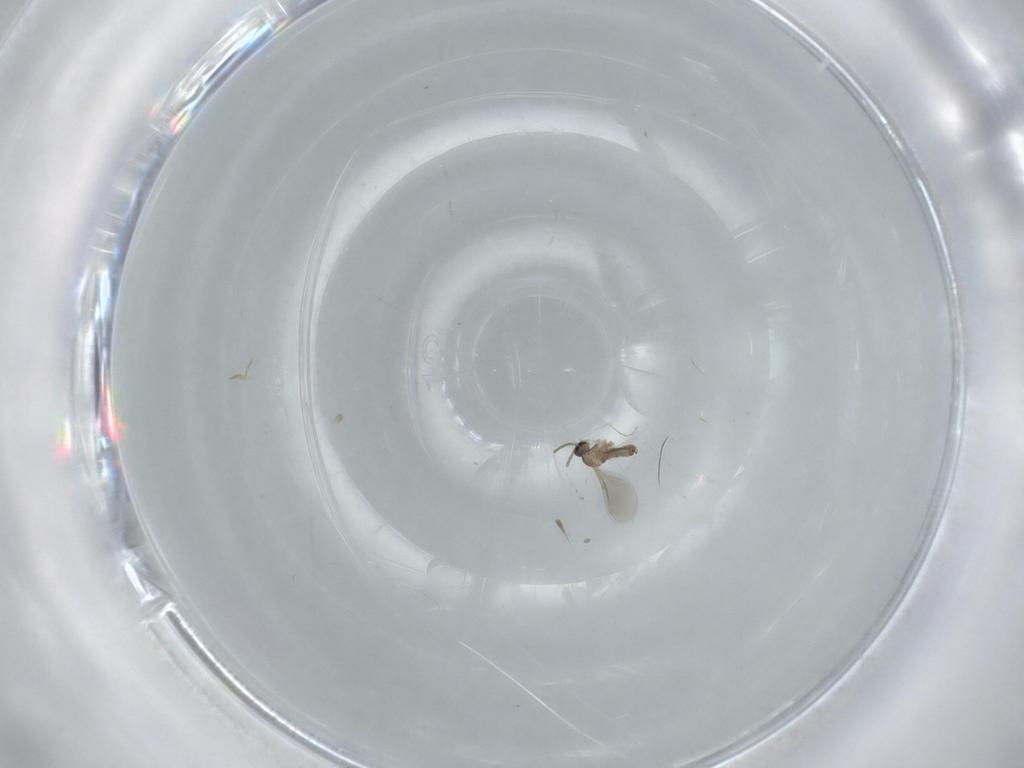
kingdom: Animalia
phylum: Arthropoda
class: Insecta
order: Diptera
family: Cecidomyiidae
